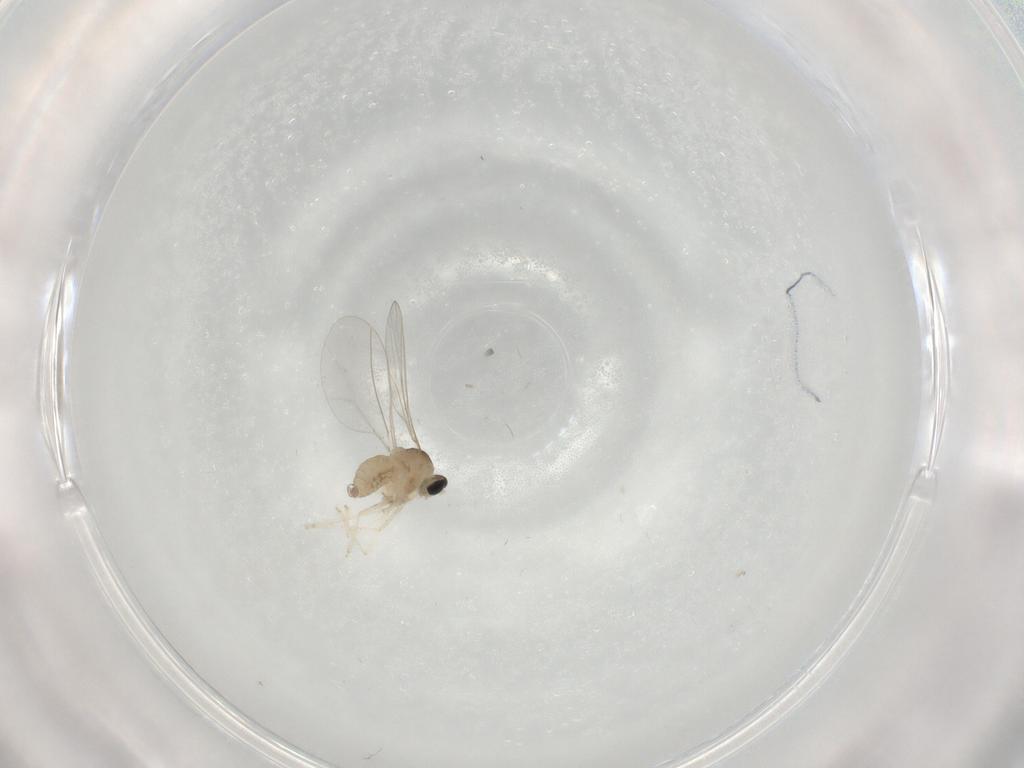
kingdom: Animalia
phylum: Arthropoda
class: Insecta
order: Diptera
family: Cecidomyiidae
